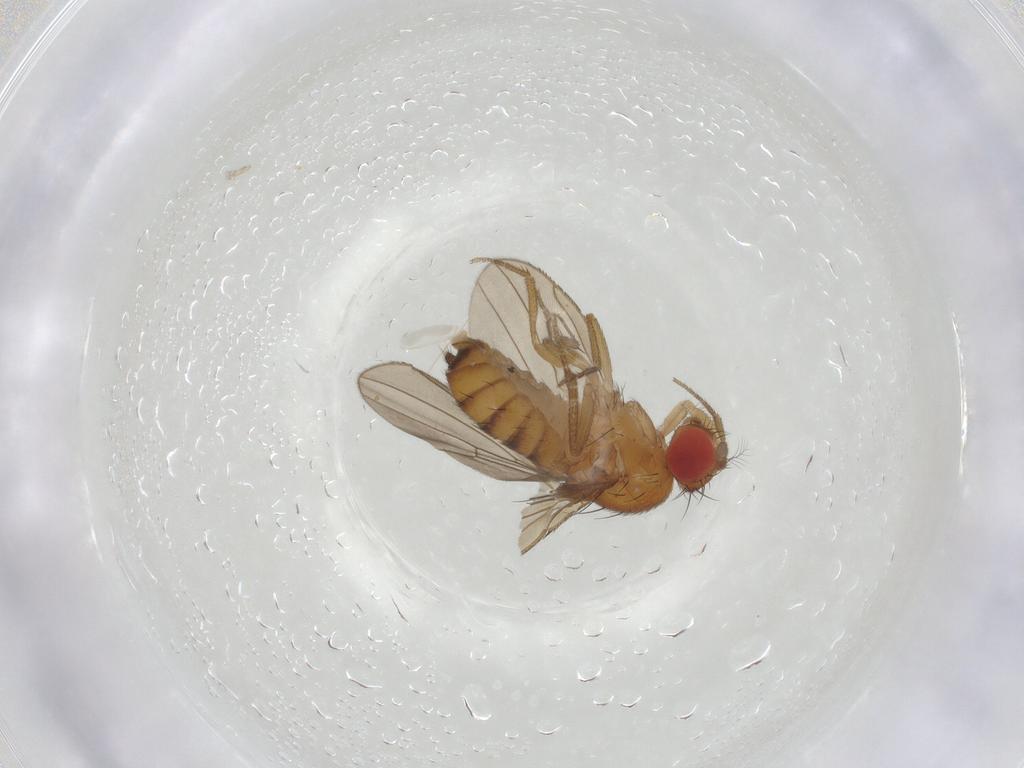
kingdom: Animalia
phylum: Arthropoda
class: Insecta
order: Diptera
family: Drosophilidae
